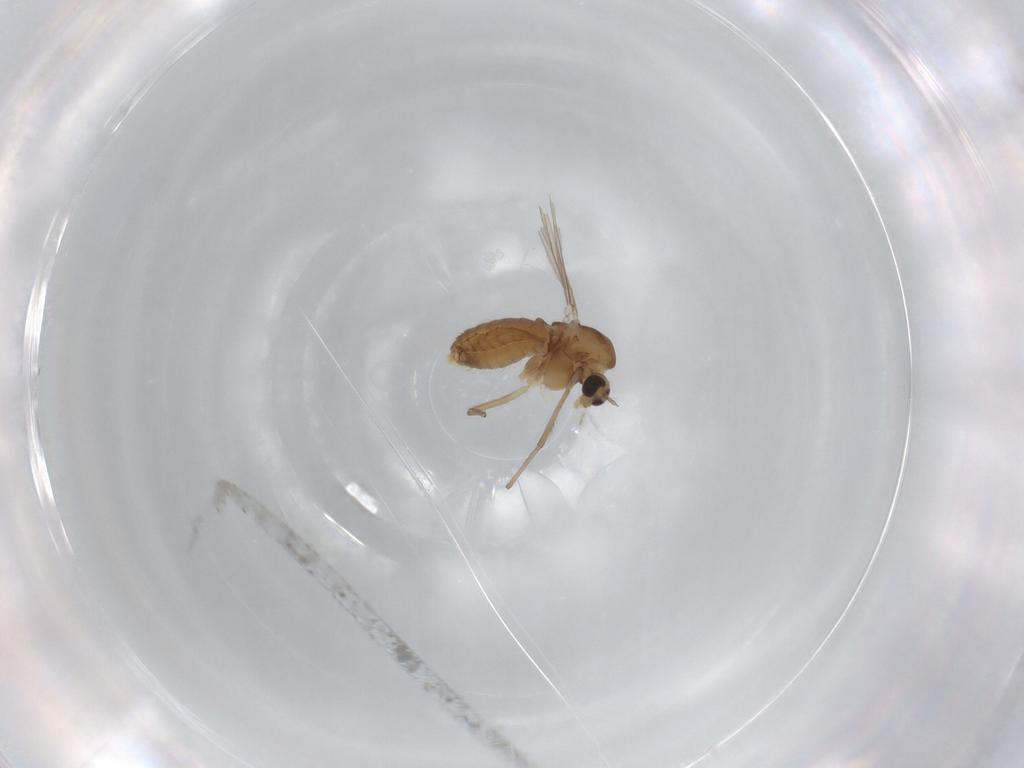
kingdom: Animalia
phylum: Arthropoda
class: Insecta
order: Diptera
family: Chironomidae
